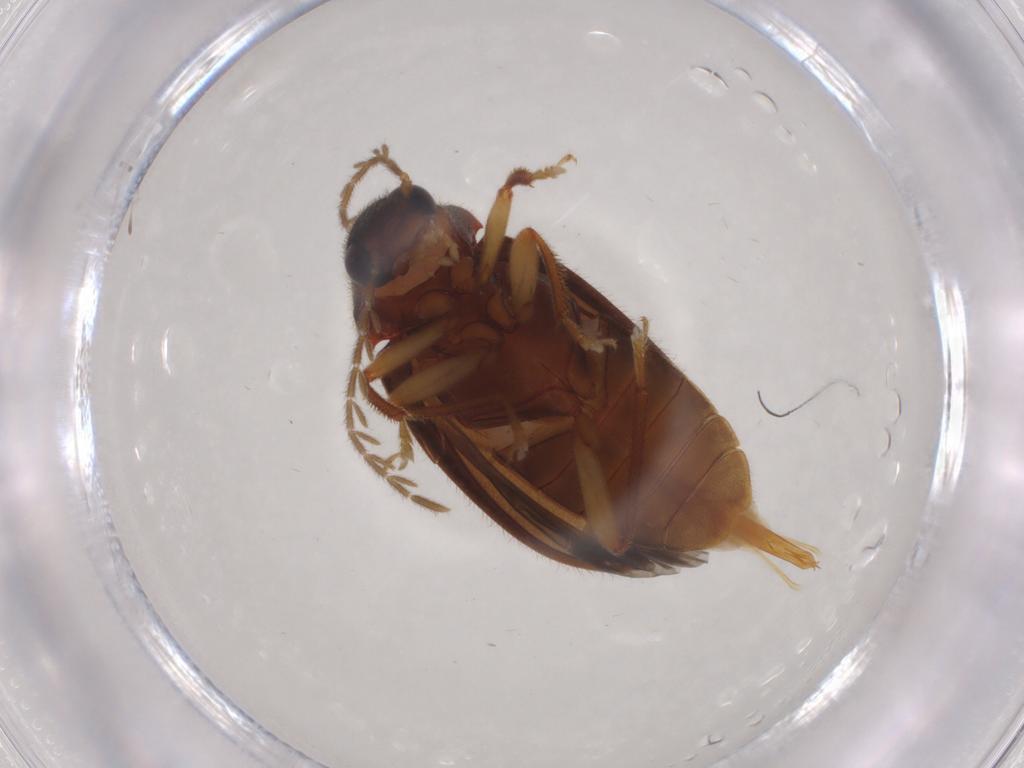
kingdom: Animalia
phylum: Arthropoda
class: Insecta
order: Coleoptera
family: Ptilodactylidae
